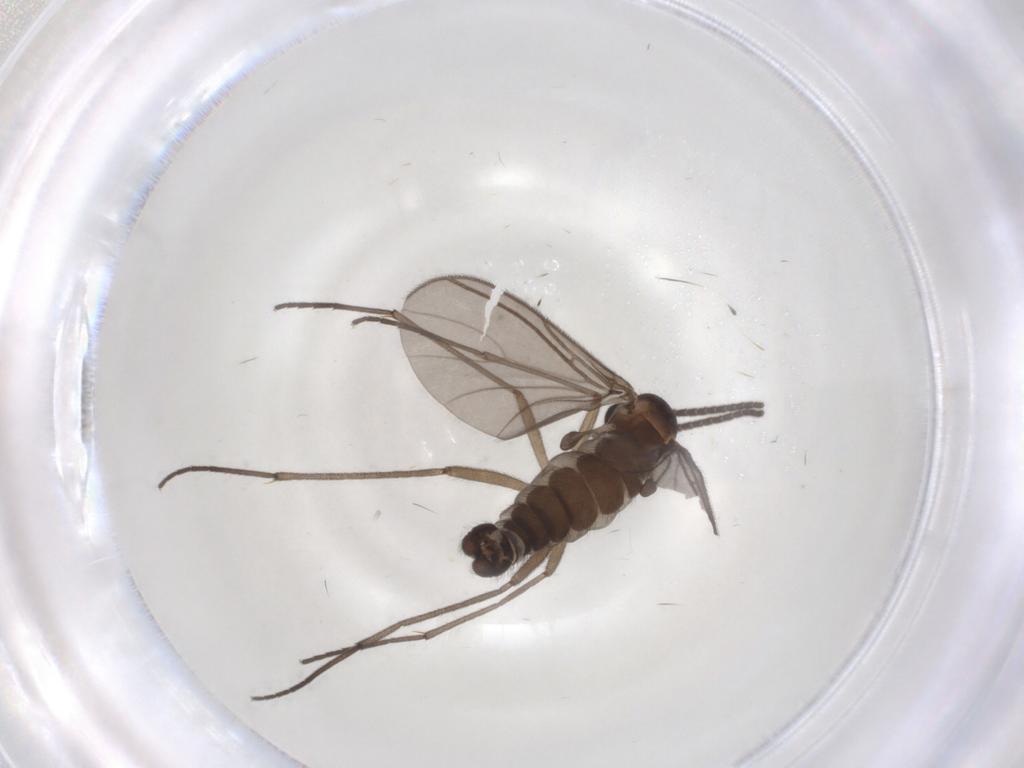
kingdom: Animalia
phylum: Arthropoda
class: Insecta
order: Diptera
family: Sciaridae
